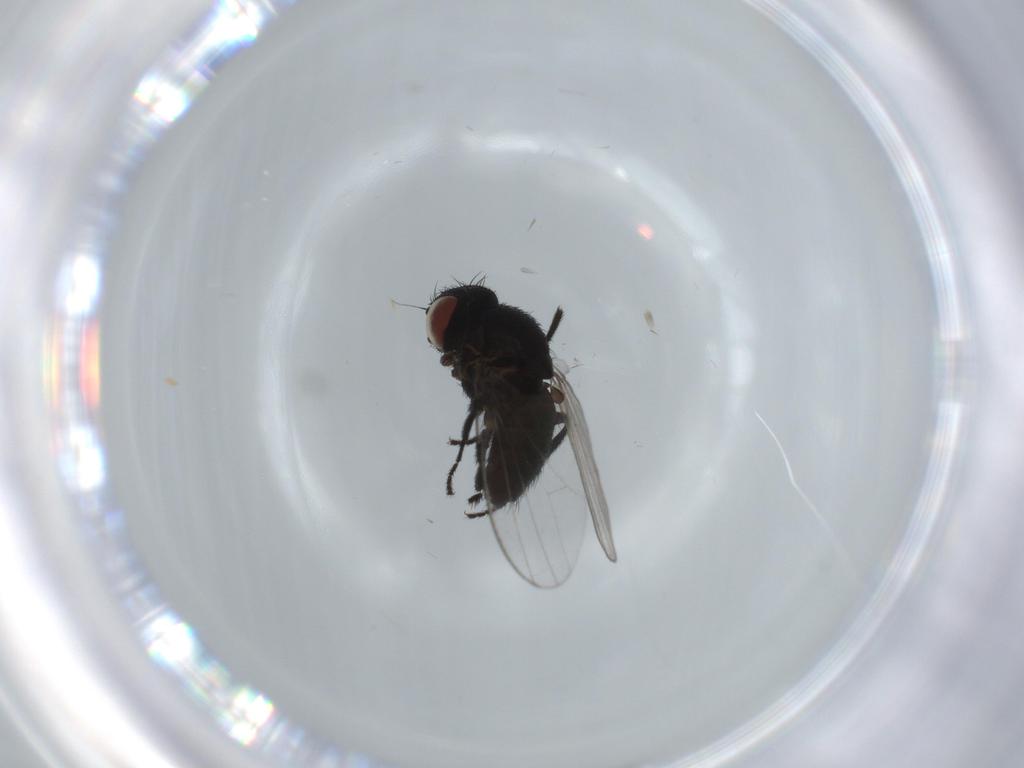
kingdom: Animalia
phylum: Arthropoda
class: Insecta
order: Diptera
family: Milichiidae
